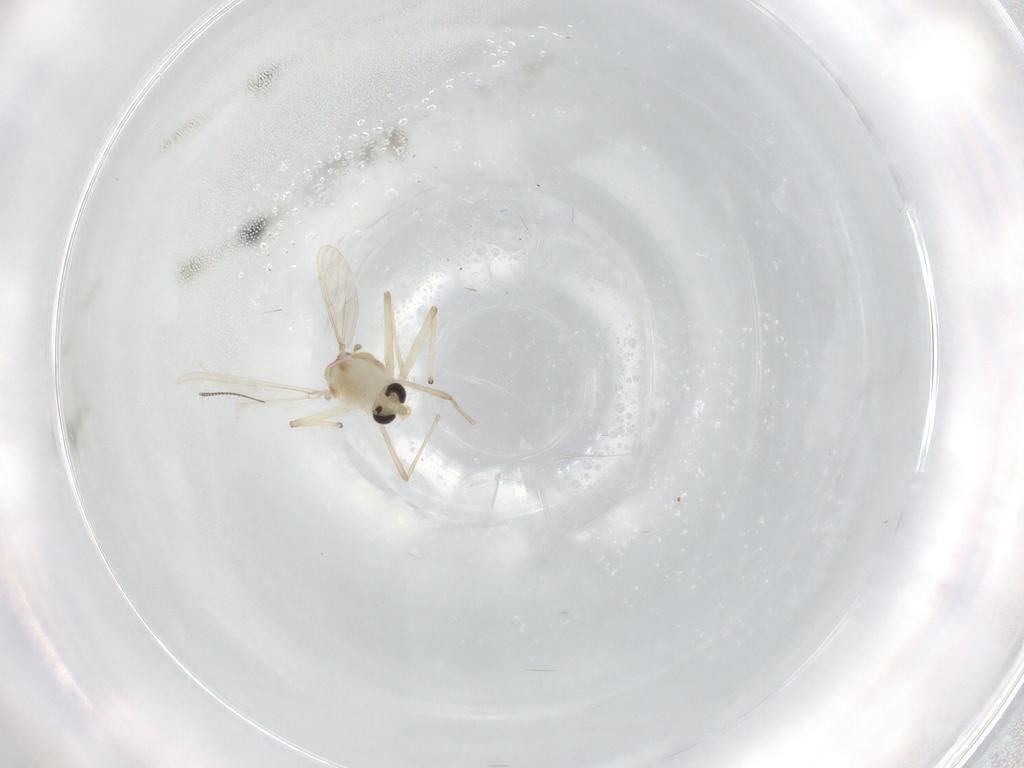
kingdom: Animalia
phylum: Arthropoda
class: Insecta
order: Diptera
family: Chironomidae
